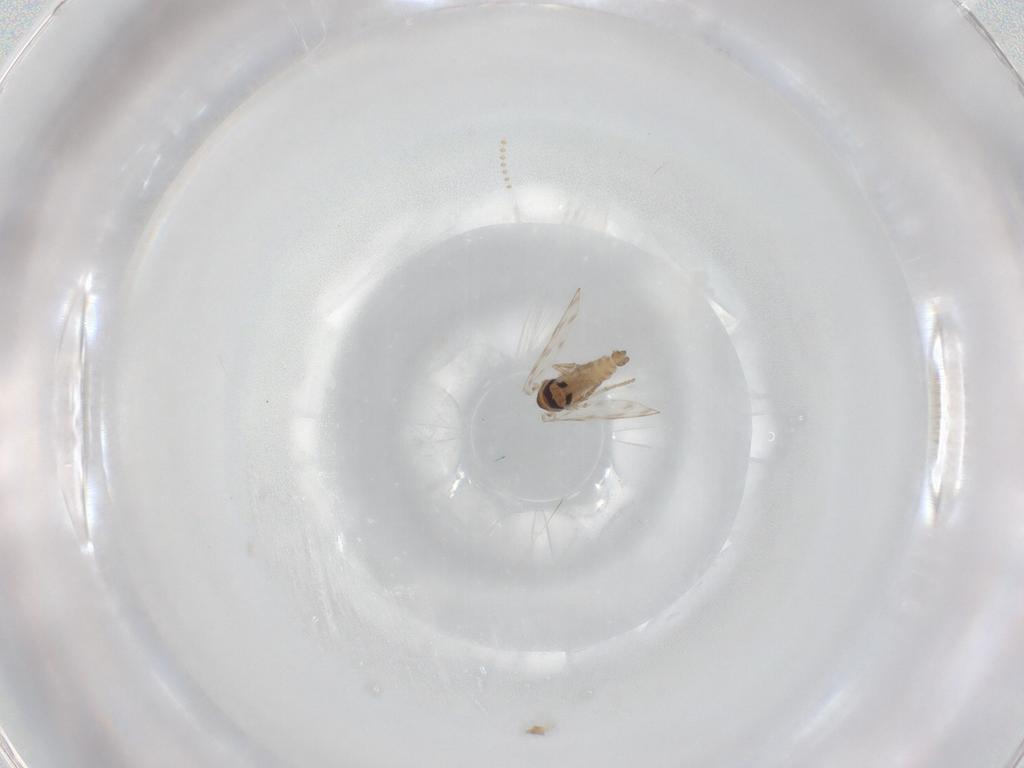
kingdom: Animalia
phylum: Arthropoda
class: Insecta
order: Diptera
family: Psychodidae
